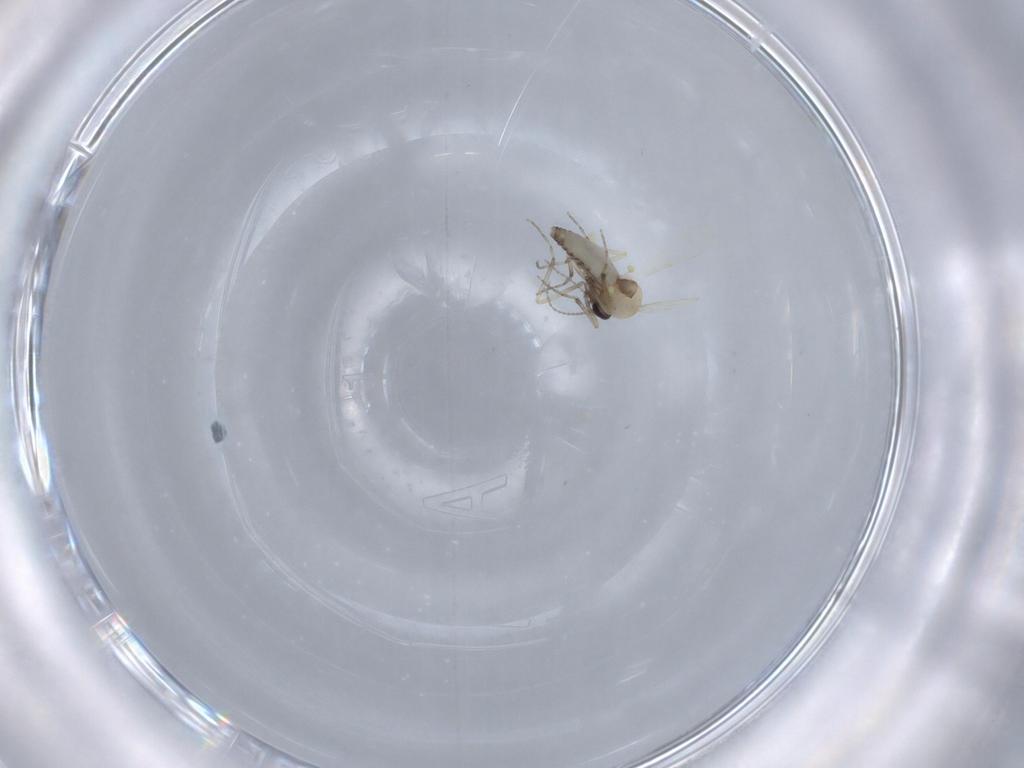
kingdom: Animalia
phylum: Arthropoda
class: Insecta
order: Diptera
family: Ceratopogonidae
